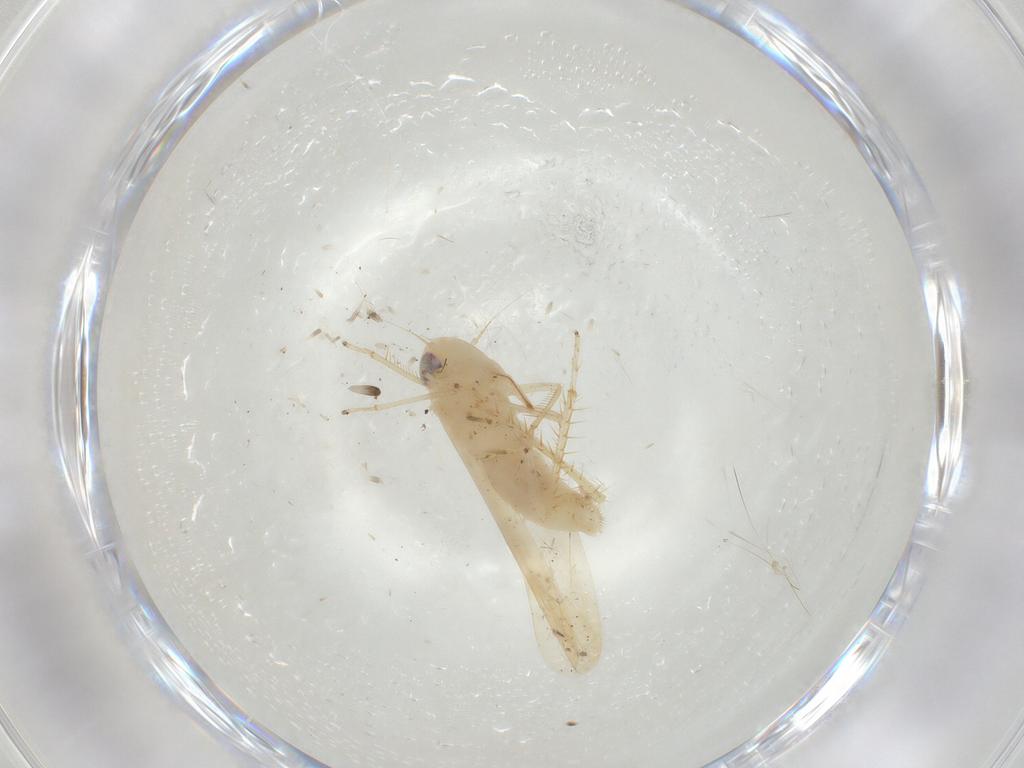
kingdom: Animalia
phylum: Arthropoda
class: Insecta
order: Hemiptera
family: Cicadellidae
